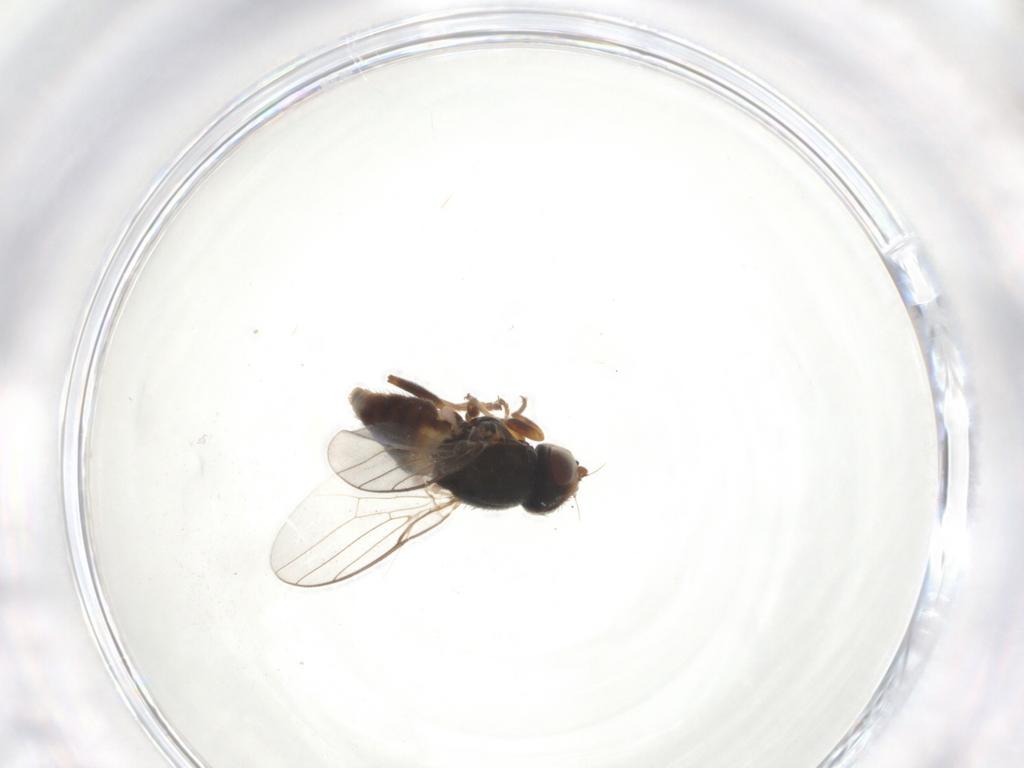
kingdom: Animalia
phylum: Arthropoda
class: Insecta
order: Diptera
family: Chloropidae
